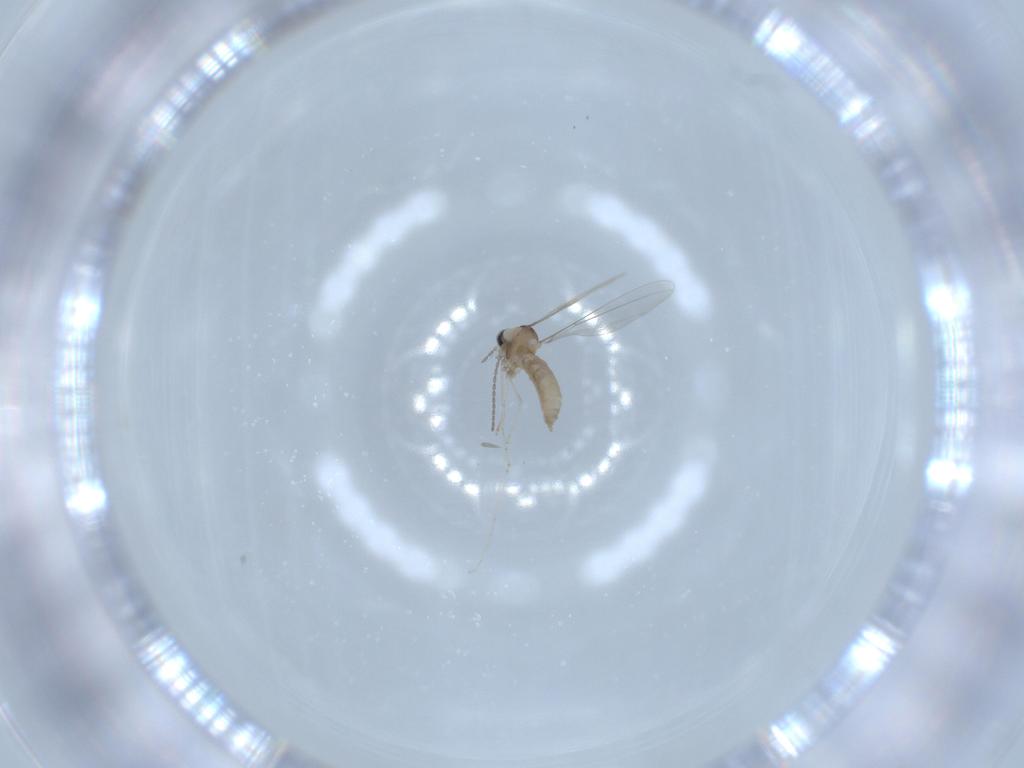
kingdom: Animalia
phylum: Arthropoda
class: Insecta
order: Diptera
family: Cecidomyiidae
